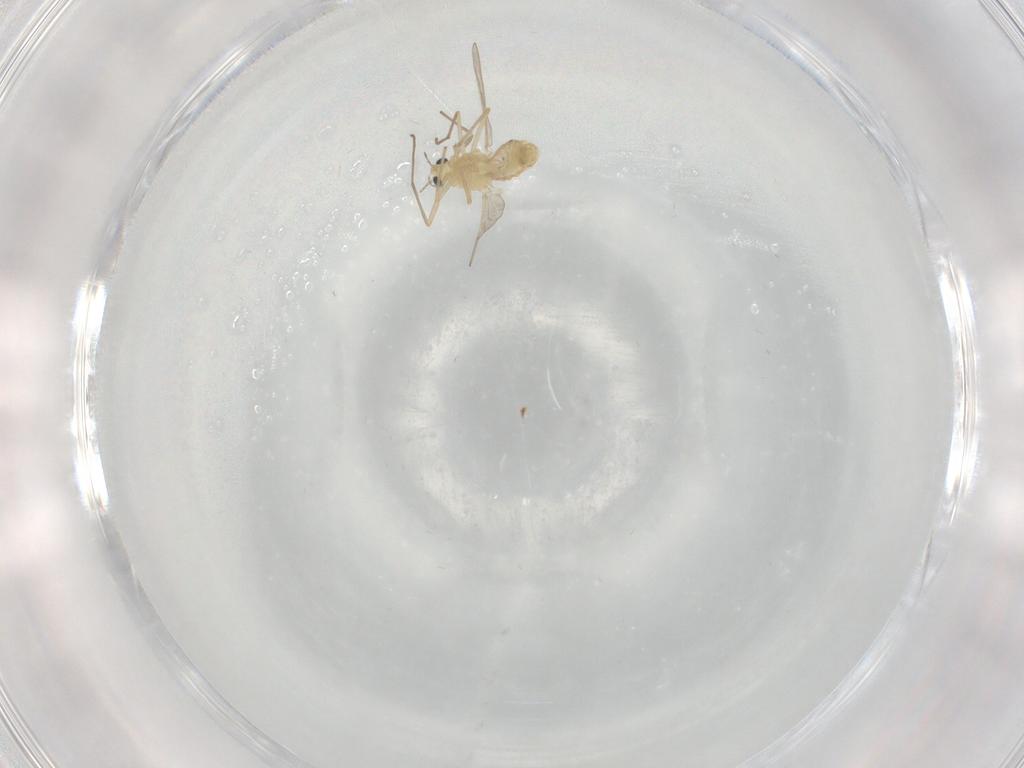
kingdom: Animalia
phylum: Arthropoda
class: Insecta
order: Diptera
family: Chironomidae
